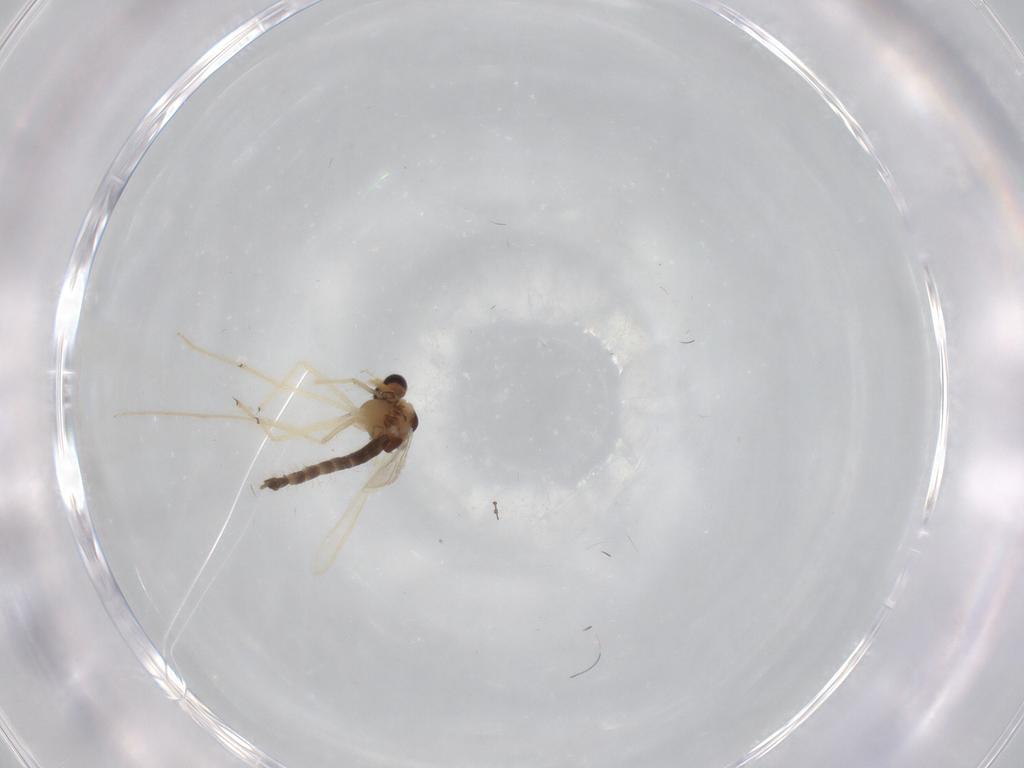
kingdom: Animalia
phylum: Arthropoda
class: Insecta
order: Diptera
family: Chironomidae
